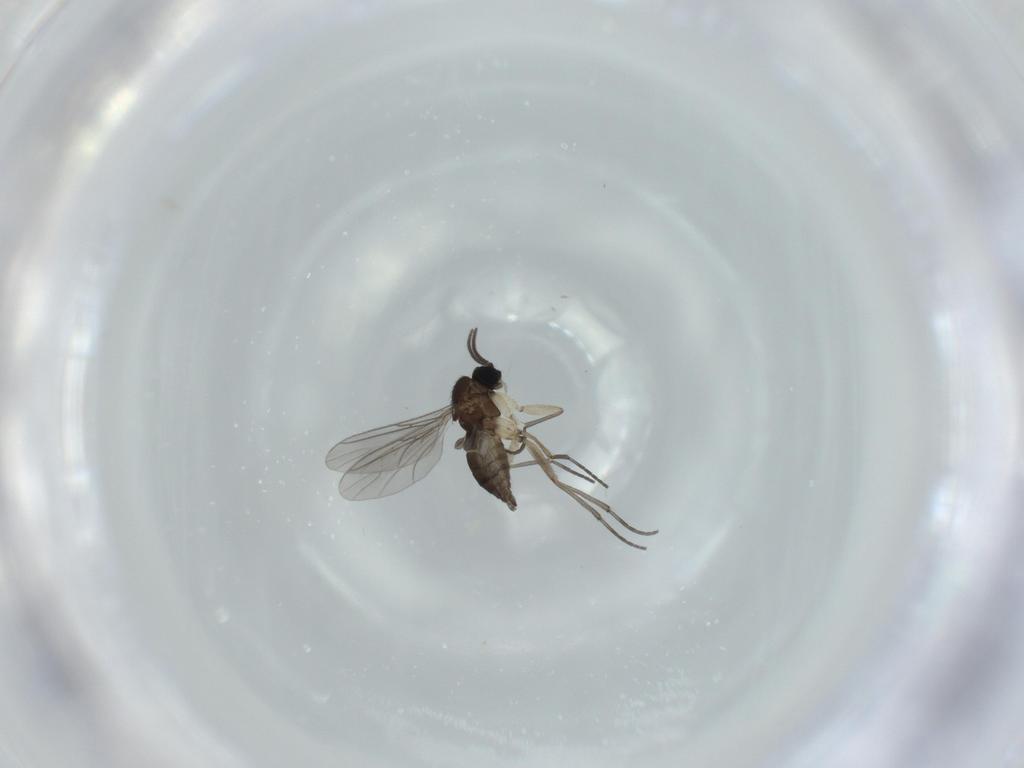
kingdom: Animalia
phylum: Arthropoda
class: Insecta
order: Diptera
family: Sciaridae
